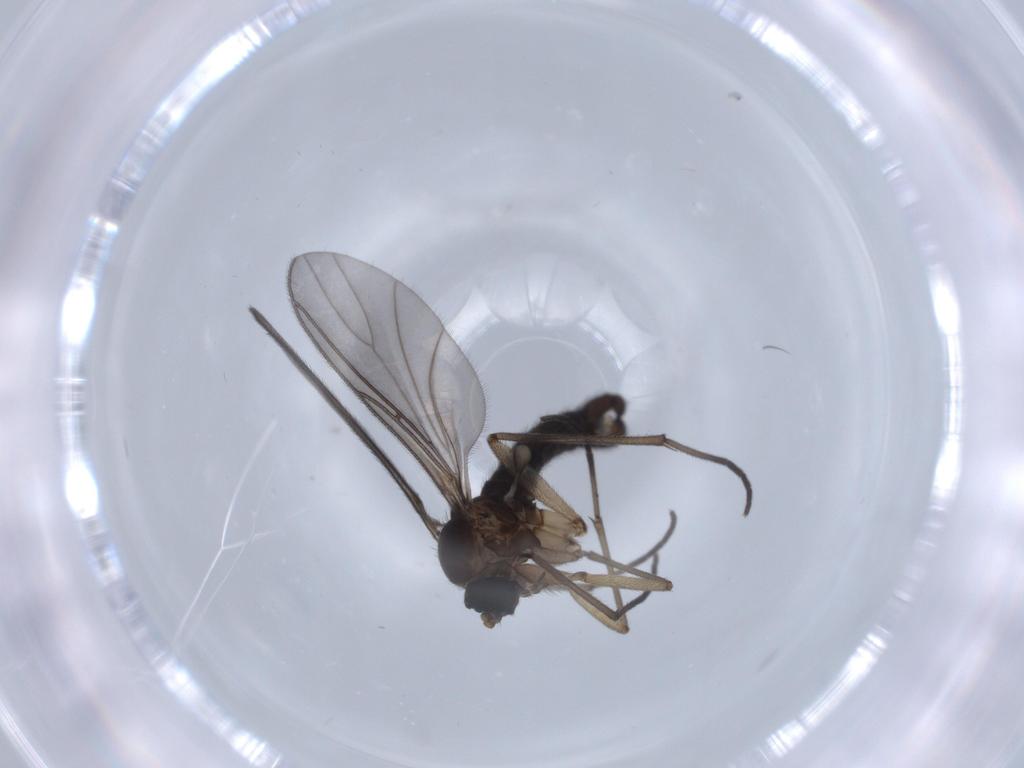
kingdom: Animalia
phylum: Arthropoda
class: Insecta
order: Diptera
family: Sciaridae
